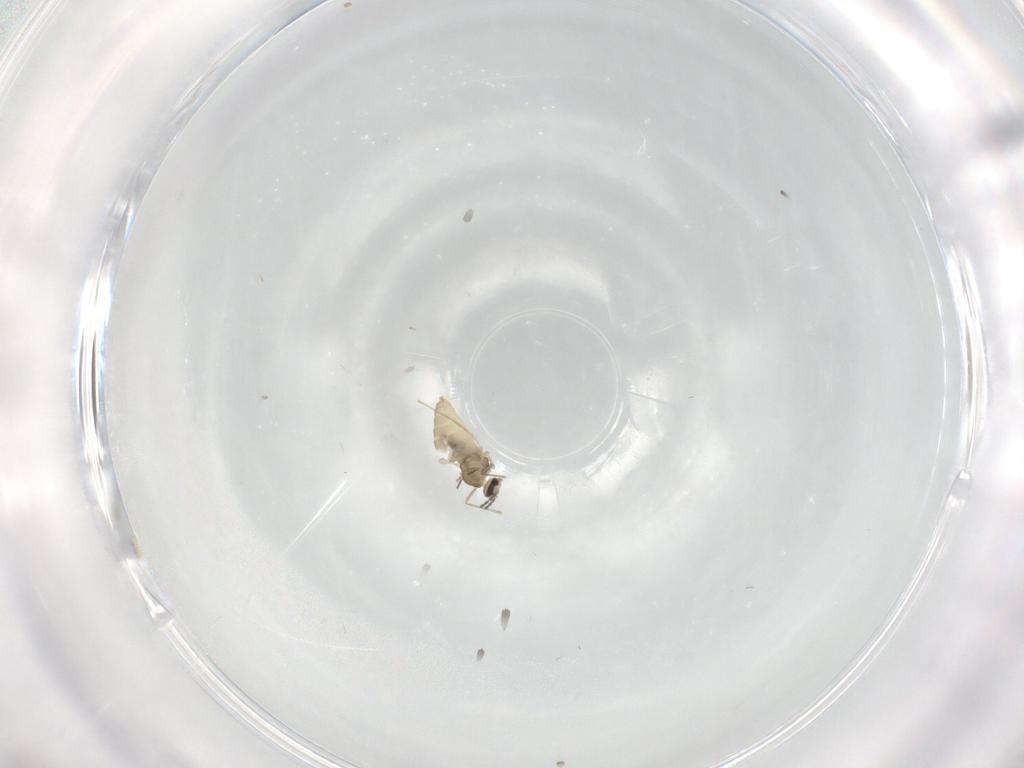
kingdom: Animalia
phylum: Arthropoda
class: Insecta
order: Diptera
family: Cecidomyiidae
